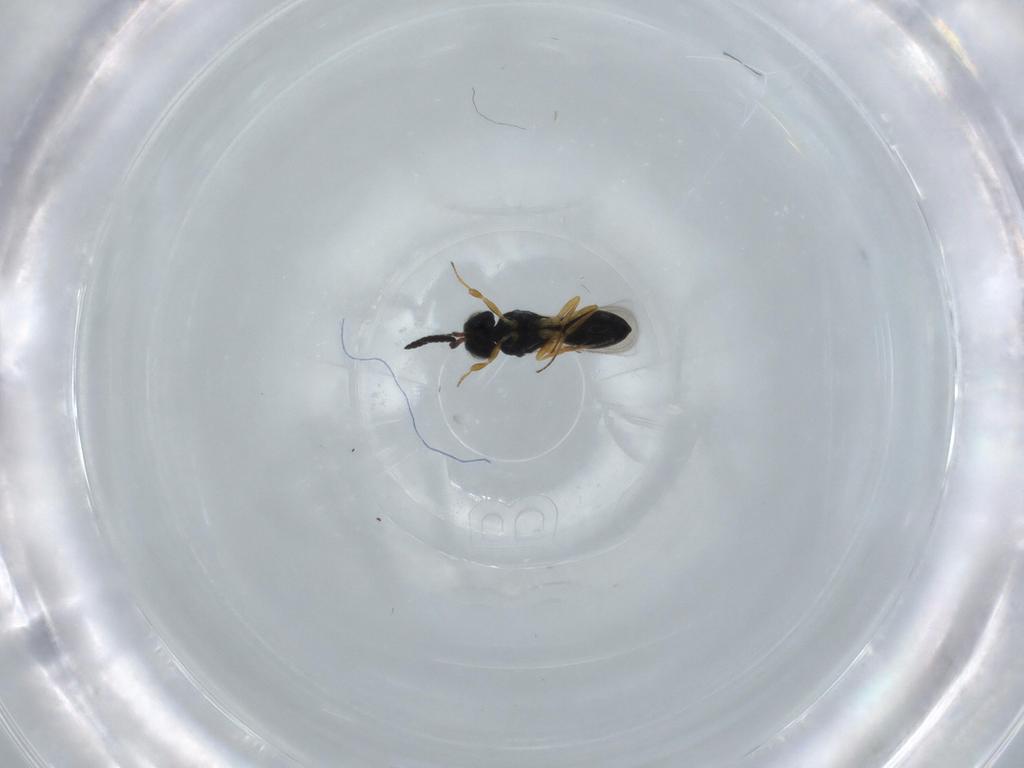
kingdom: Animalia
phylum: Arthropoda
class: Insecta
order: Hymenoptera
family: Scelionidae
